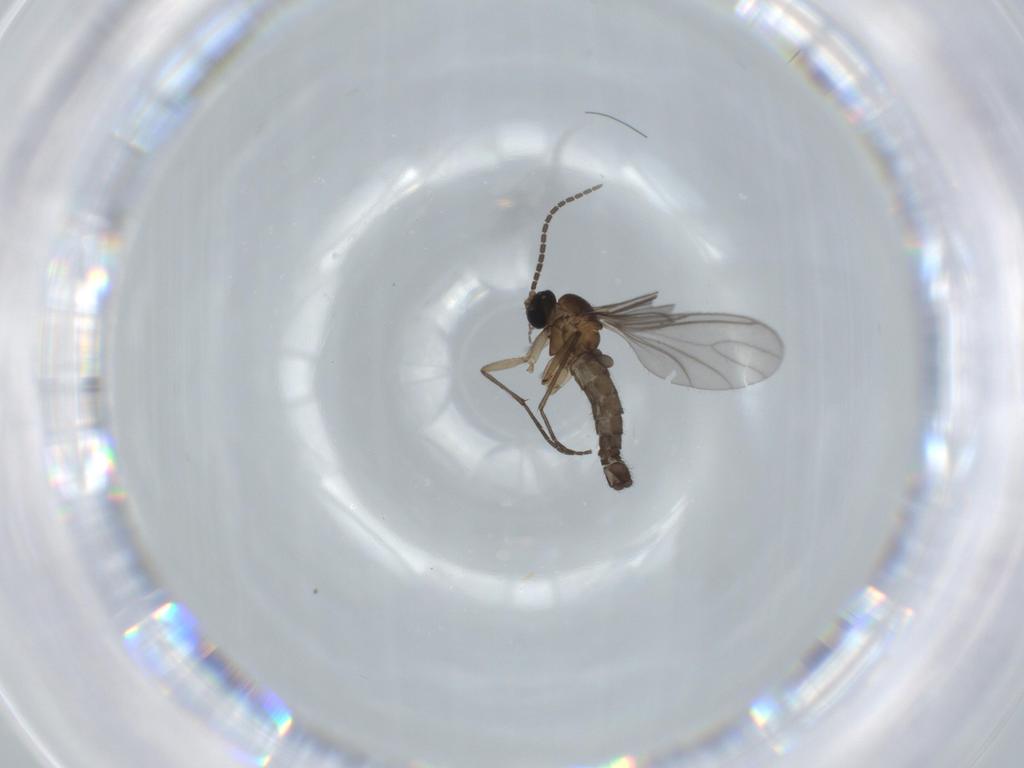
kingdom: Animalia
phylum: Arthropoda
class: Insecta
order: Diptera
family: Sciaridae
